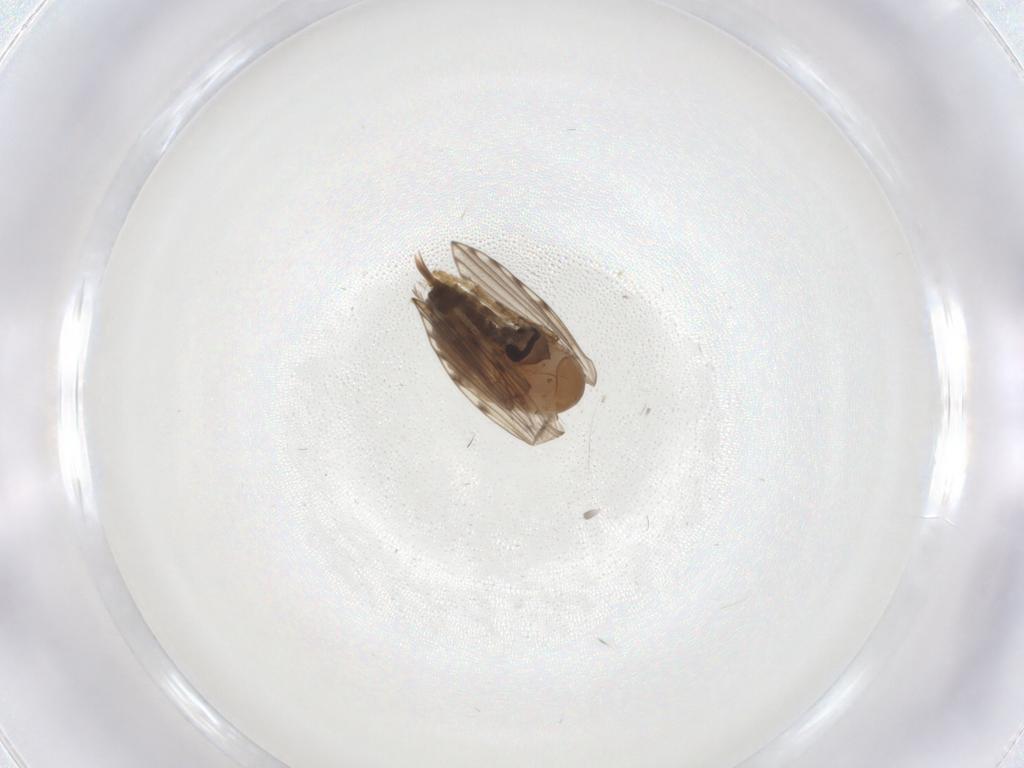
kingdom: Animalia
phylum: Arthropoda
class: Insecta
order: Diptera
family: Psychodidae
